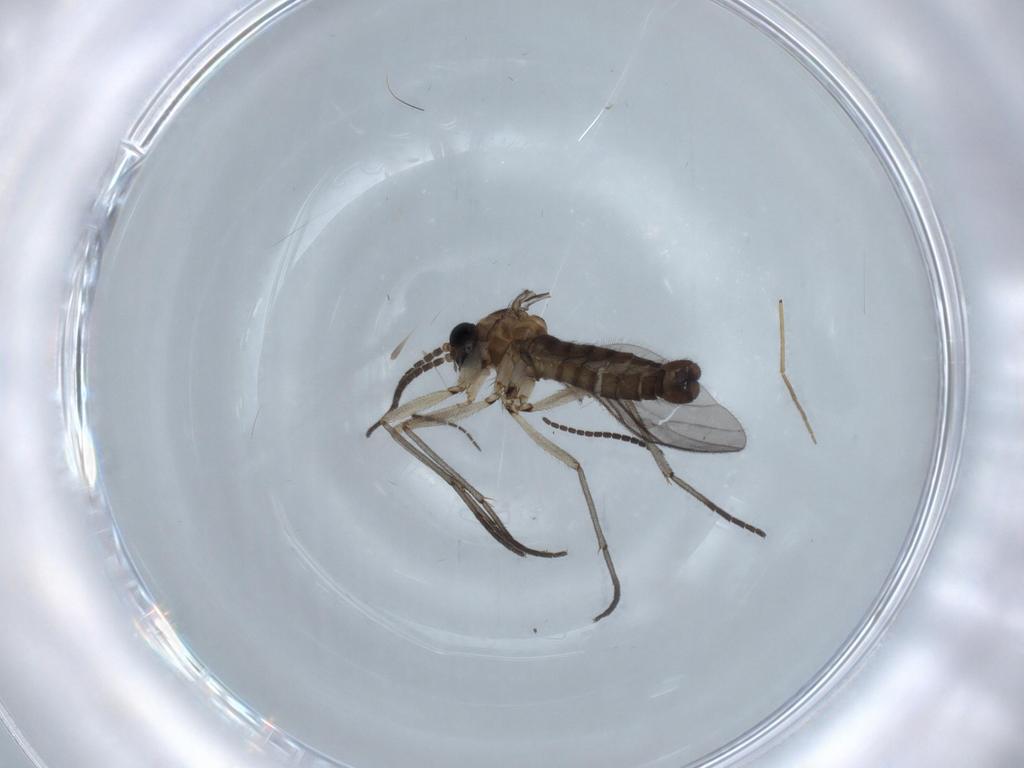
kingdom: Animalia
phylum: Arthropoda
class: Insecta
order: Diptera
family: Sciaridae
